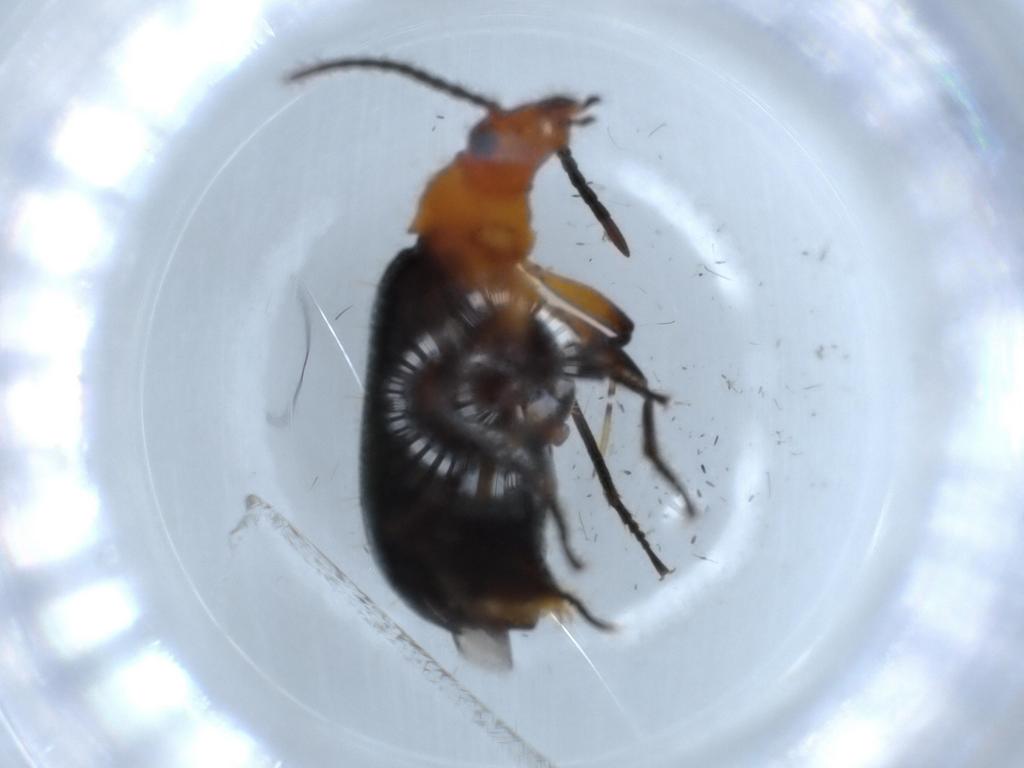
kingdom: Animalia
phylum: Arthropoda
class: Insecta
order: Coleoptera
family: Carabidae
